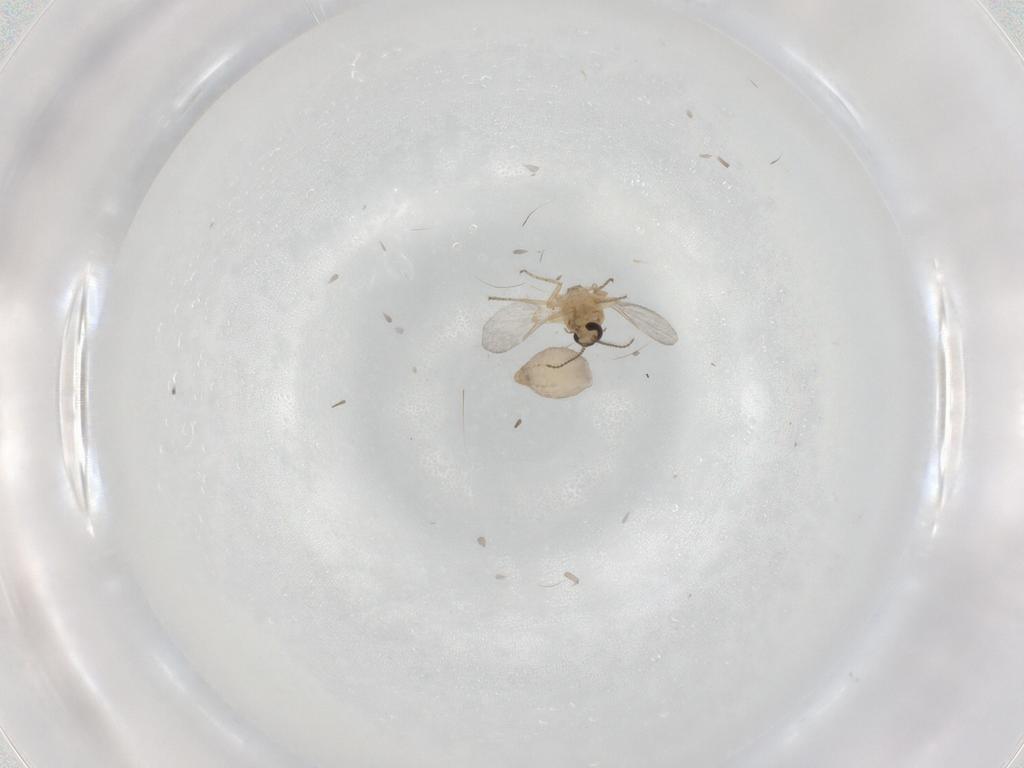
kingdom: Animalia
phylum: Arthropoda
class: Insecta
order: Diptera
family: Ceratopogonidae
